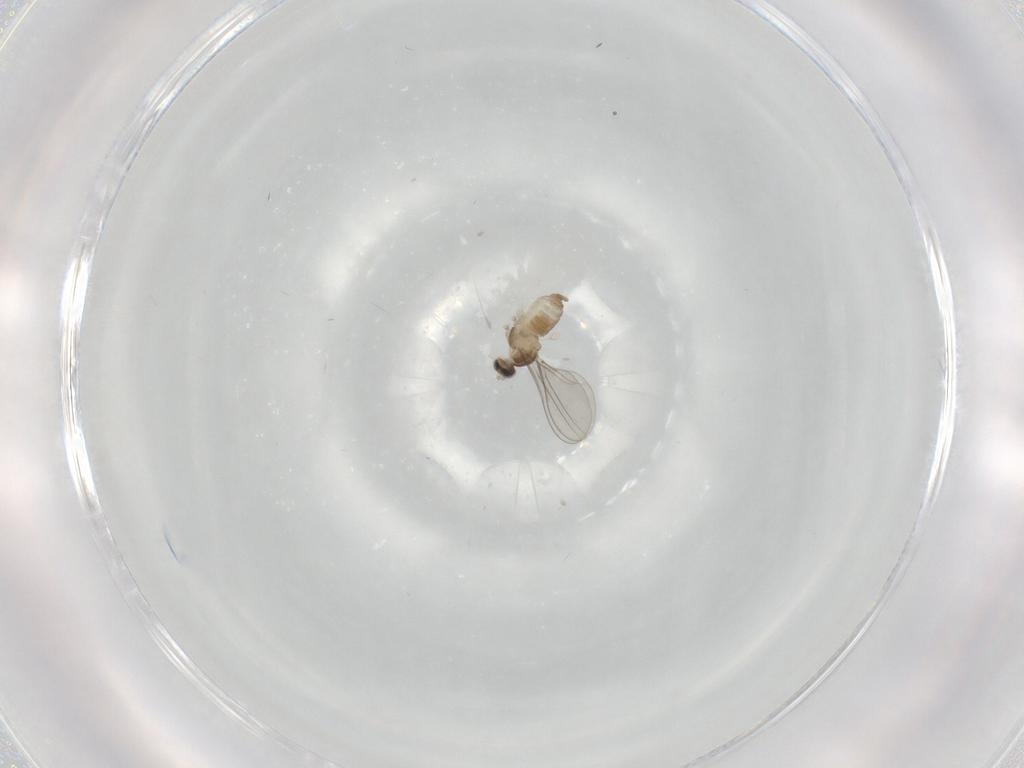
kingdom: Animalia
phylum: Arthropoda
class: Insecta
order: Diptera
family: Cecidomyiidae
